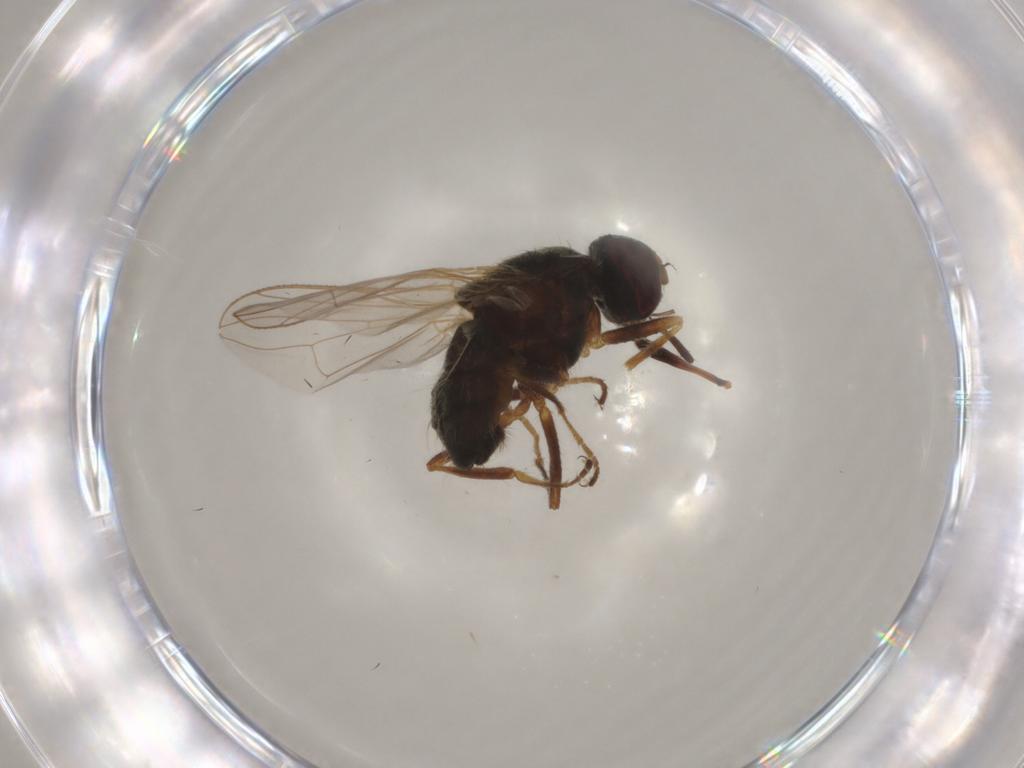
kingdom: Animalia
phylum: Arthropoda
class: Insecta
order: Diptera
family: Muscidae
